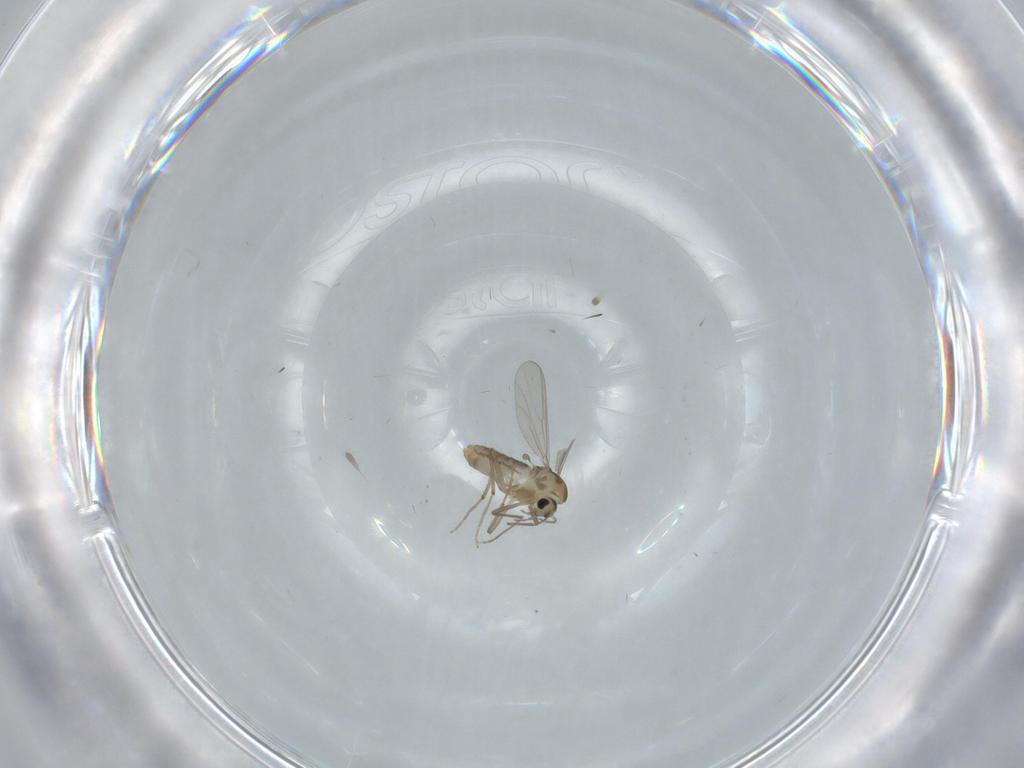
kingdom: Animalia
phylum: Arthropoda
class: Insecta
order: Diptera
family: Chironomidae
